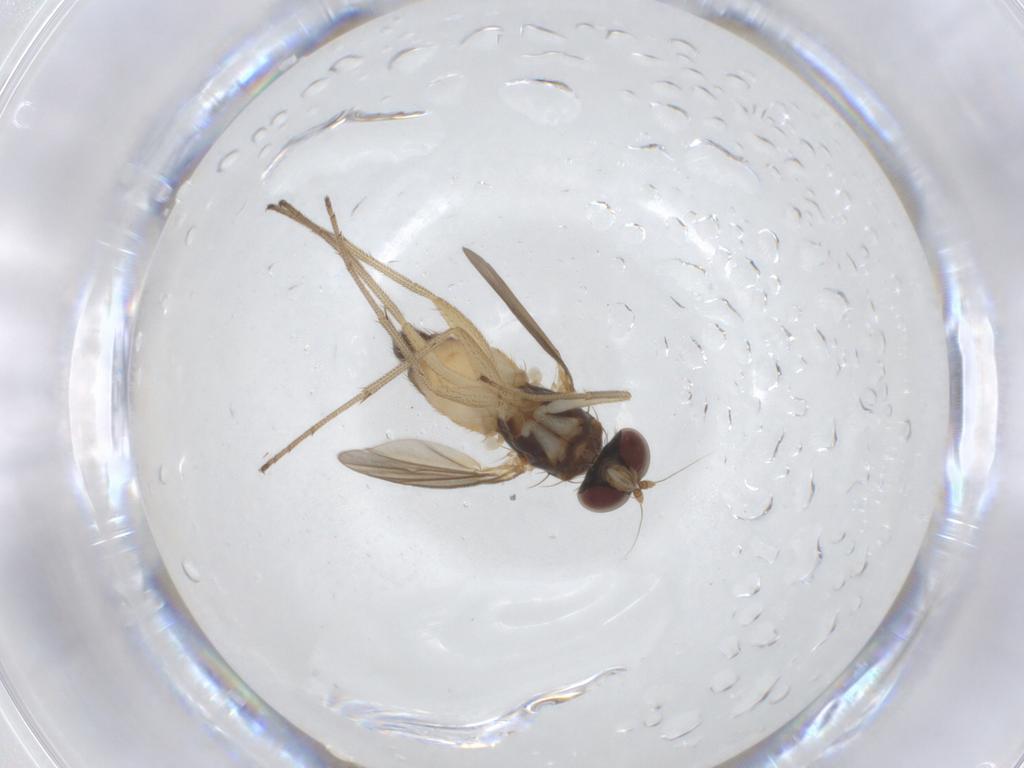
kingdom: Animalia
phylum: Arthropoda
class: Insecta
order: Diptera
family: Dolichopodidae
